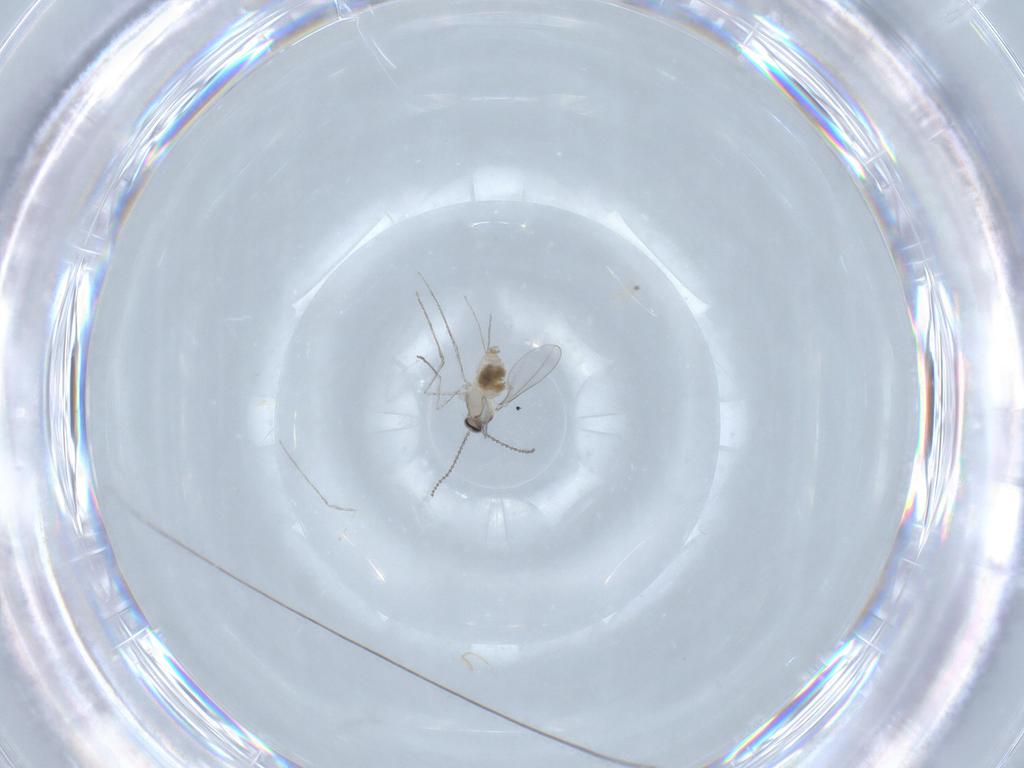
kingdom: Animalia
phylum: Arthropoda
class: Insecta
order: Diptera
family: Cecidomyiidae
